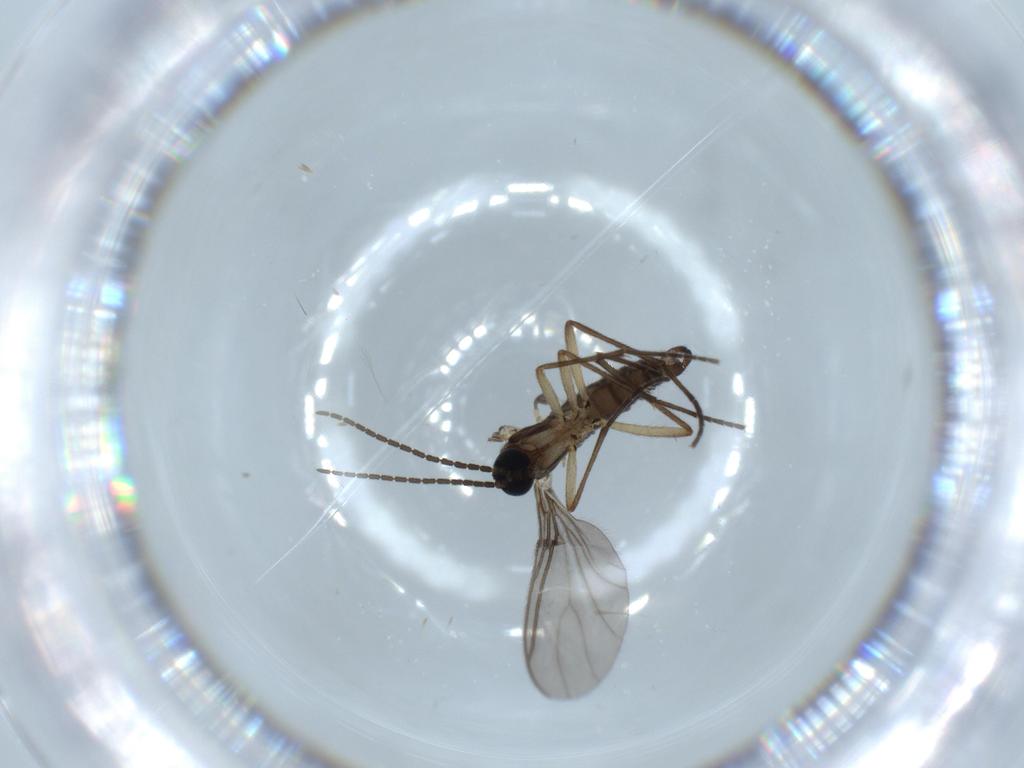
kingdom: Animalia
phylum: Arthropoda
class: Insecta
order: Diptera
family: Sciaridae
